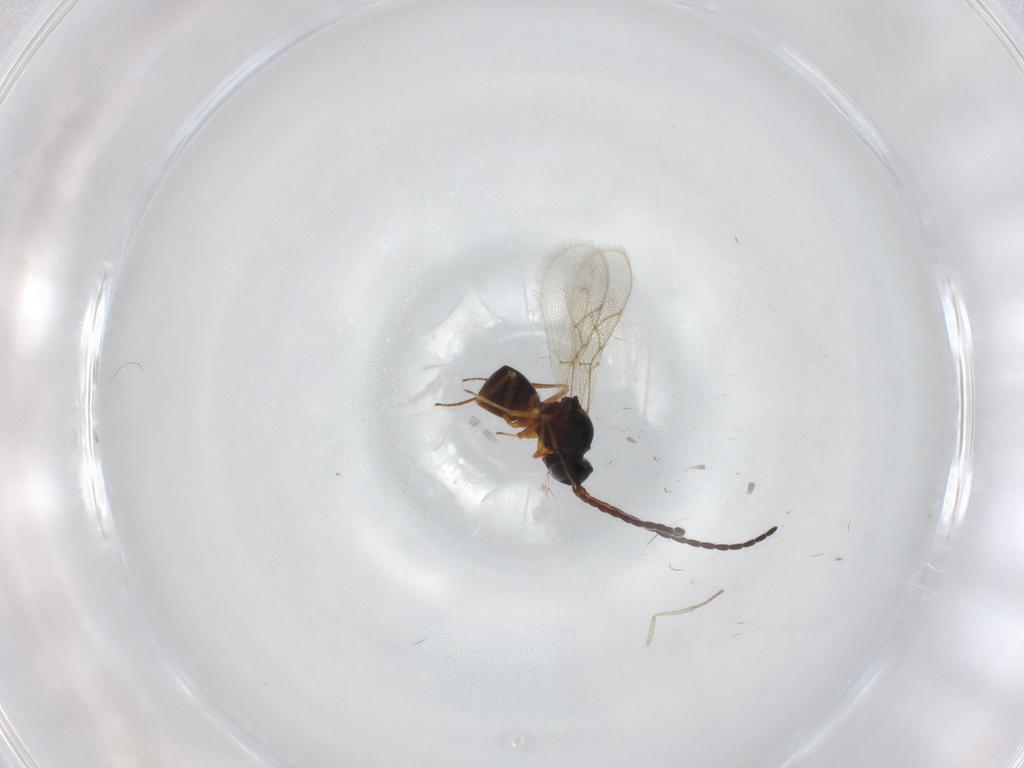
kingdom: Animalia
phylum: Arthropoda
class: Insecta
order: Hymenoptera
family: Figitidae
